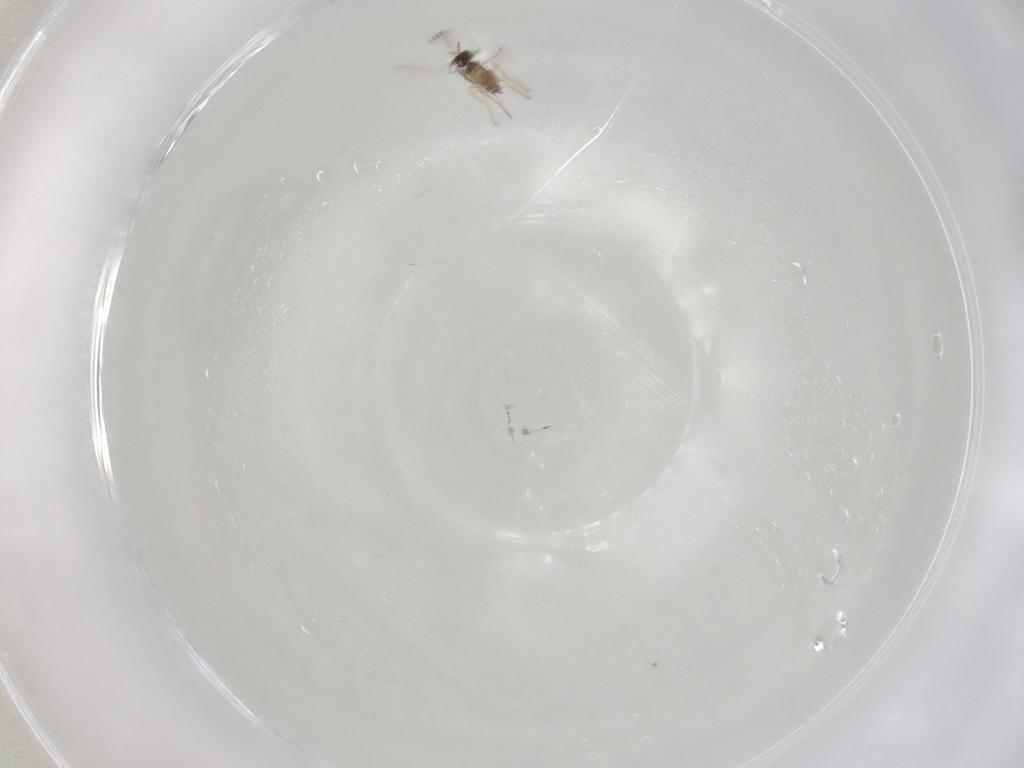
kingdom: Animalia
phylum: Arthropoda
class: Insecta
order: Hymenoptera
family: Mymaridae
